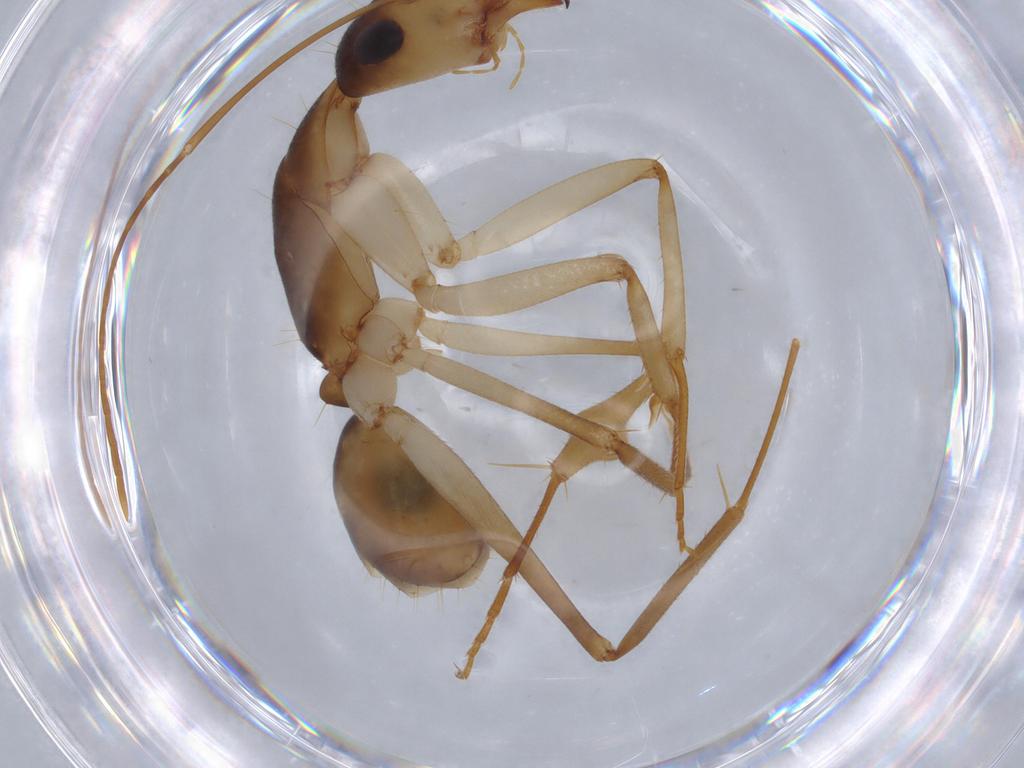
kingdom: Animalia
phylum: Arthropoda
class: Insecta
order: Hymenoptera
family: Formicidae
